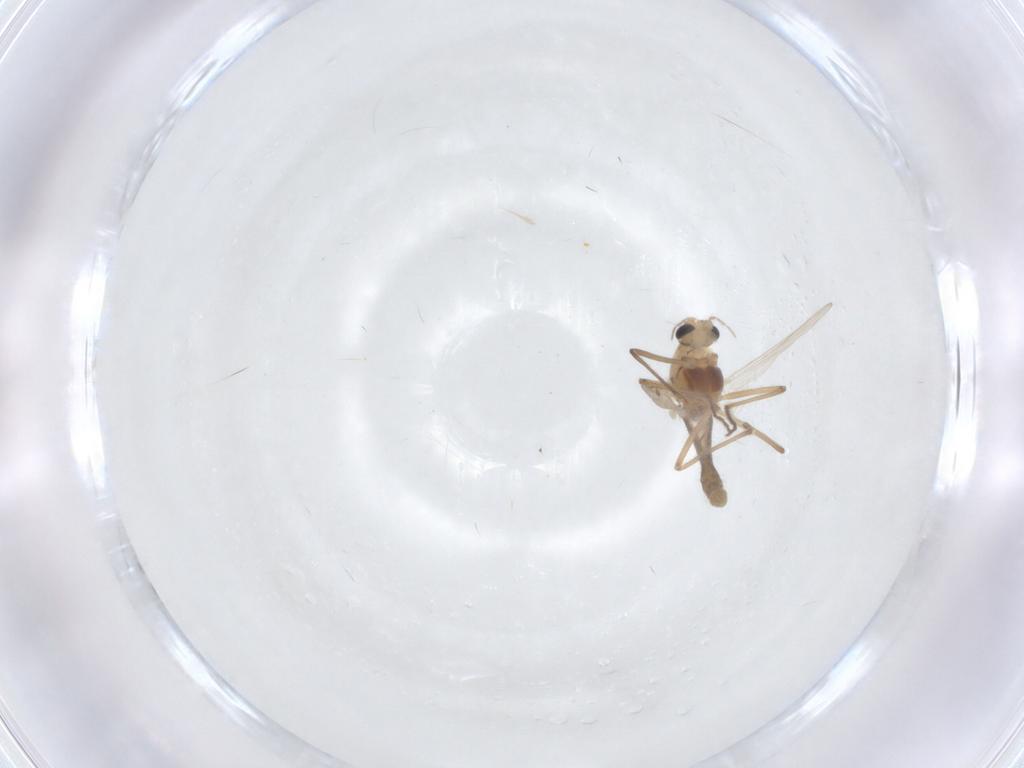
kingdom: Animalia
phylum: Arthropoda
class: Insecta
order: Diptera
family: Chironomidae
